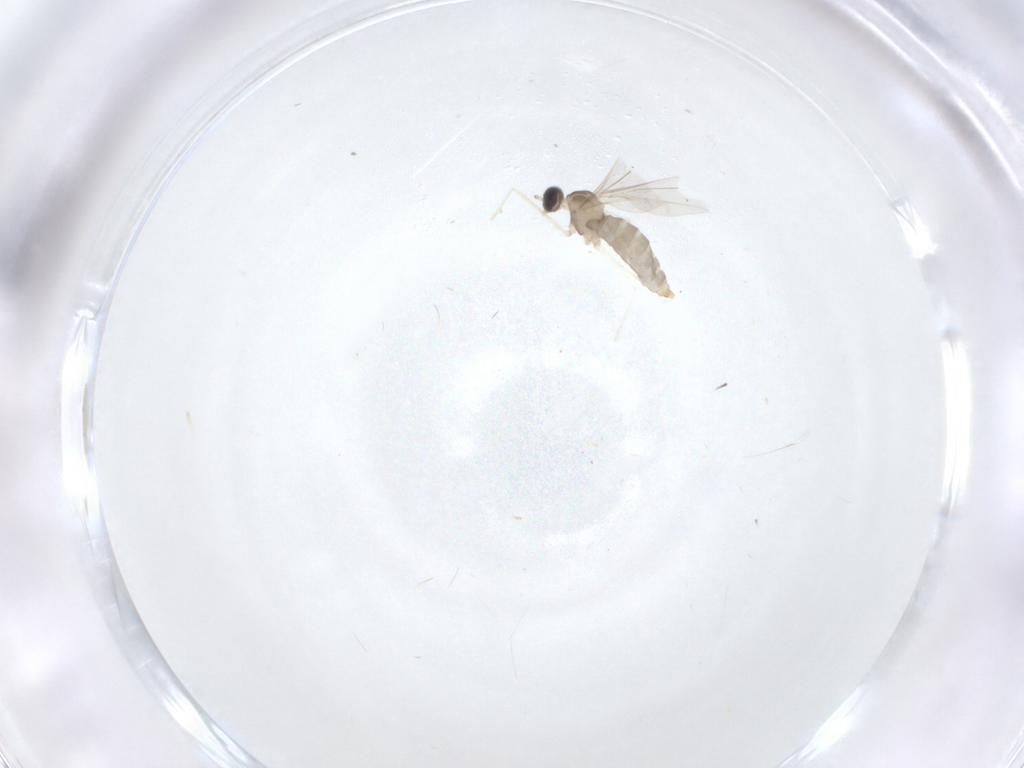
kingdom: Animalia
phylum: Arthropoda
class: Insecta
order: Diptera
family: Cecidomyiidae
